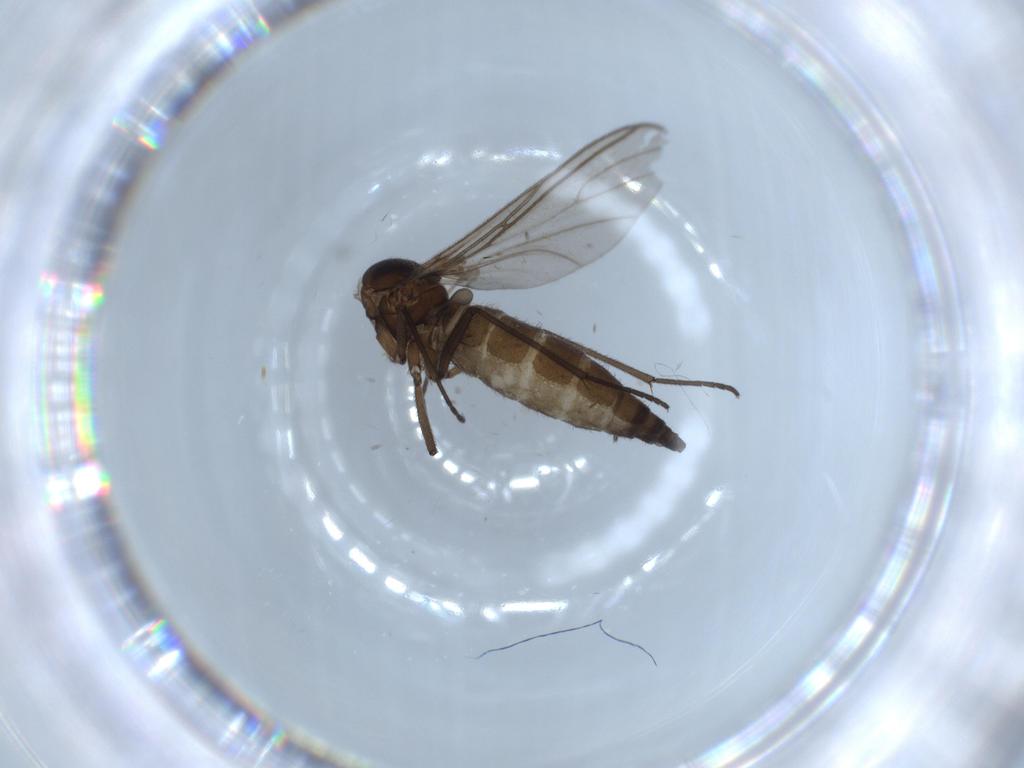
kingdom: Animalia
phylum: Arthropoda
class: Insecta
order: Diptera
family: Sciaridae
